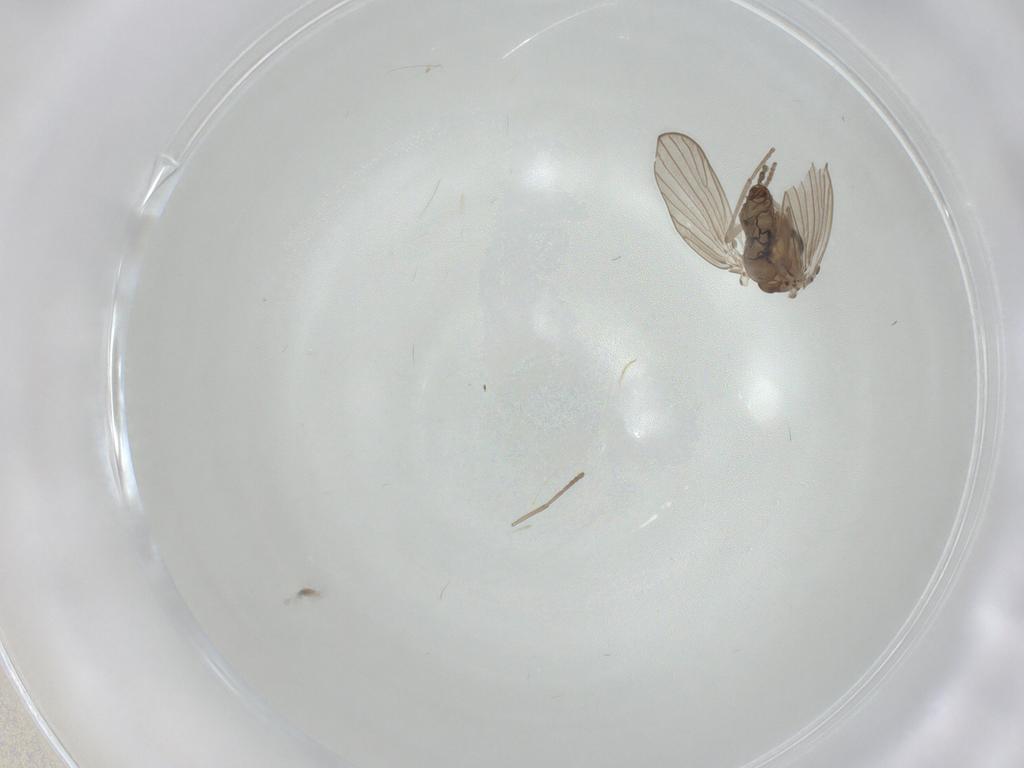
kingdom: Animalia
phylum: Arthropoda
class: Insecta
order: Diptera
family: Psychodidae
